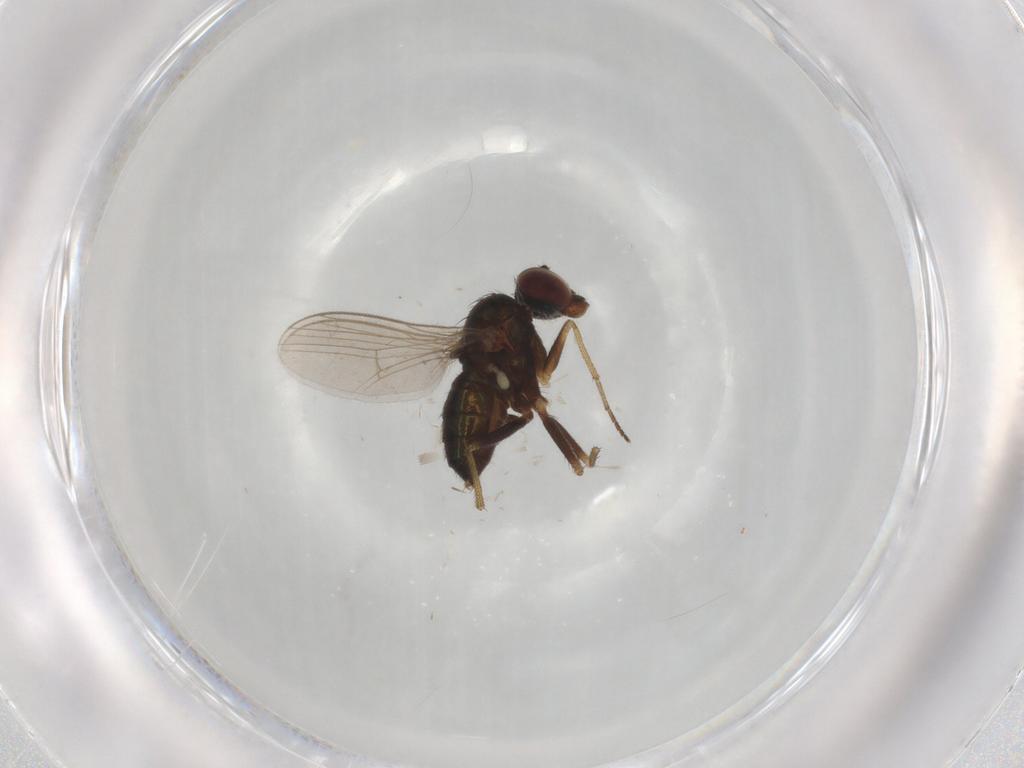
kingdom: Animalia
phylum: Arthropoda
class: Insecta
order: Diptera
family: Dolichopodidae
